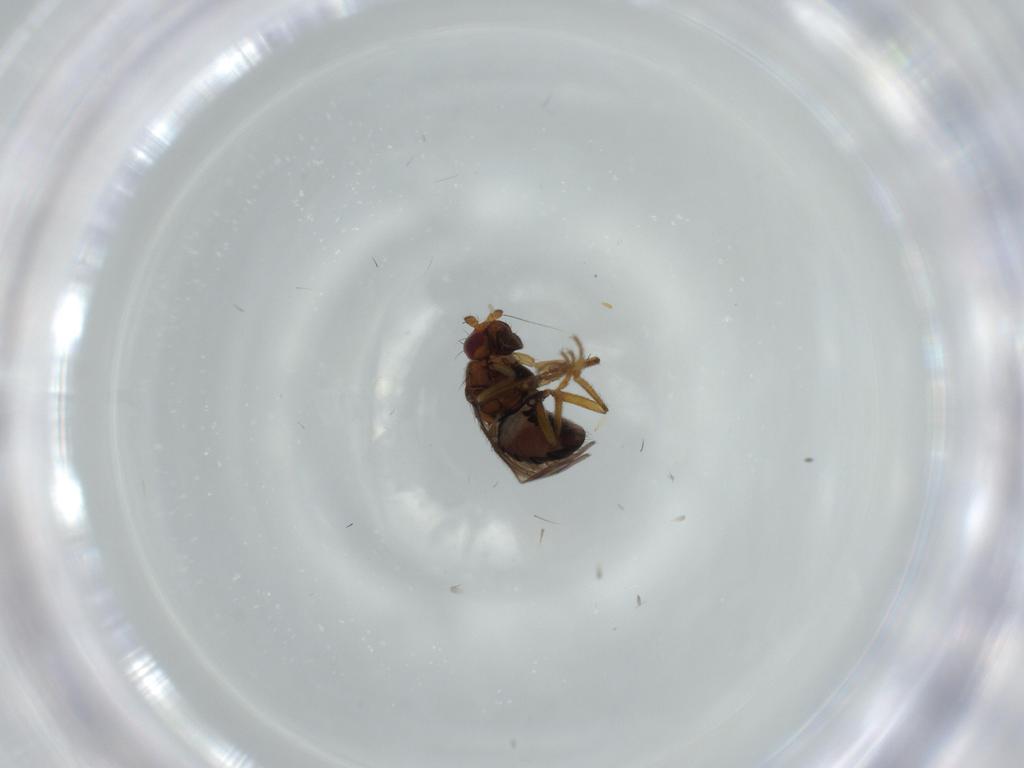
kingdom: Animalia
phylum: Arthropoda
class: Insecta
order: Diptera
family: Sphaeroceridae
